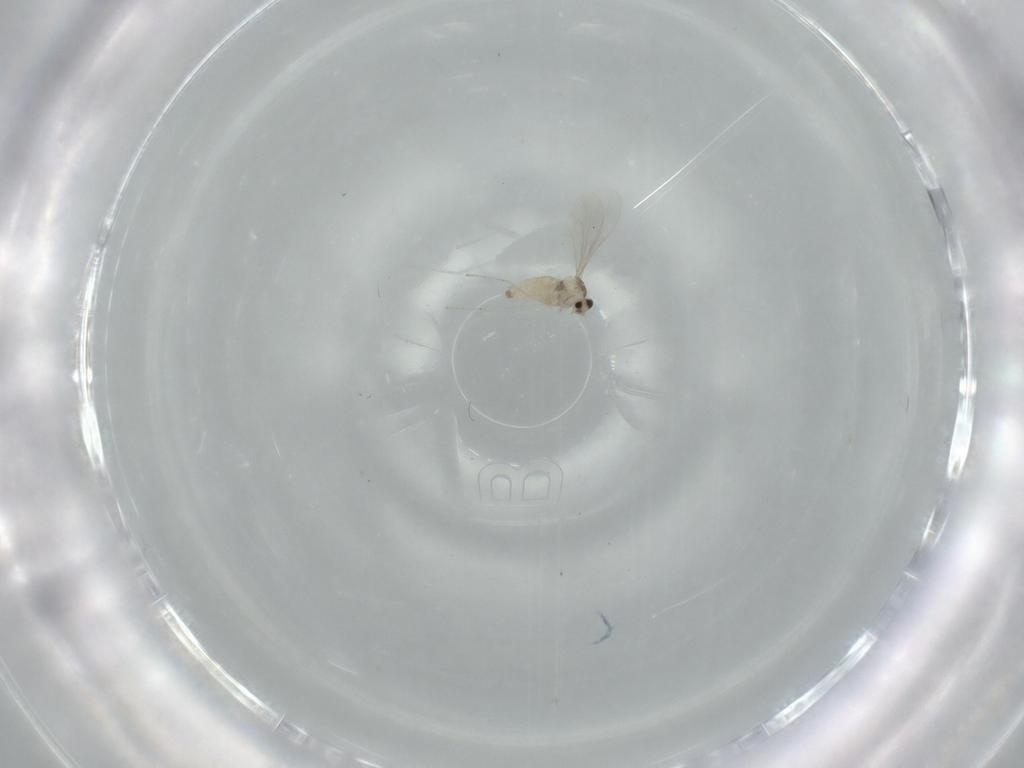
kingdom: Animalia
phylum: Arthropoda
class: Insecta
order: Diptera
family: Cecidomyiidae
